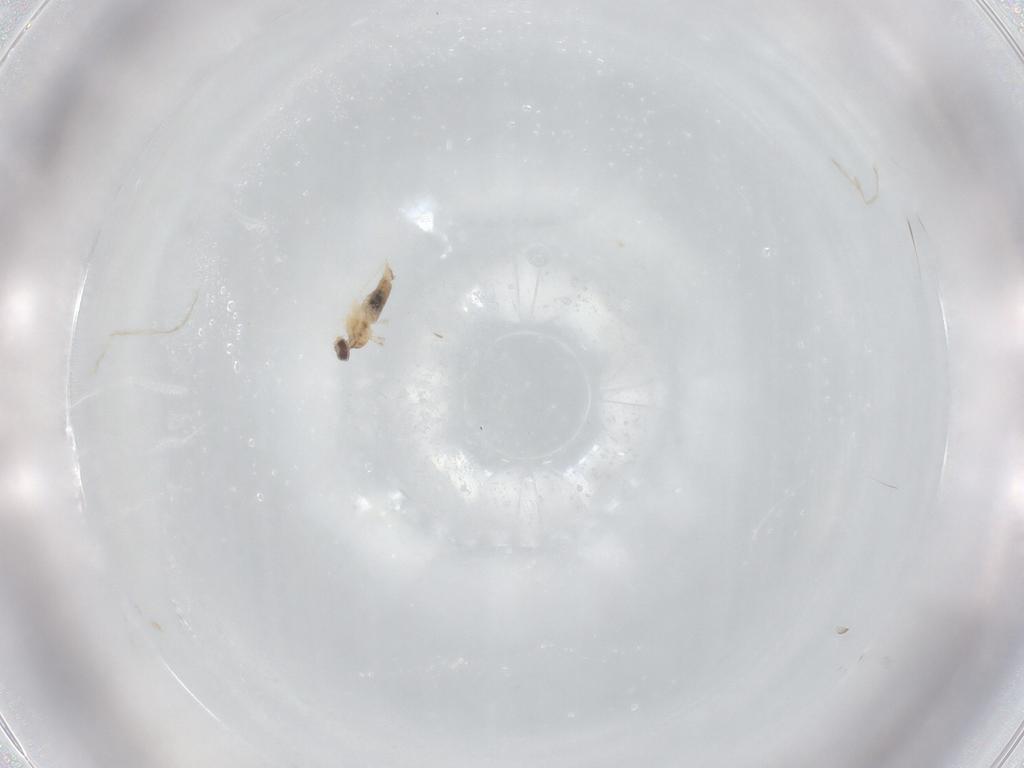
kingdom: Animalia
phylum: Arthropoda
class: Insecta
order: Diptera
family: Cecidomyiidae
